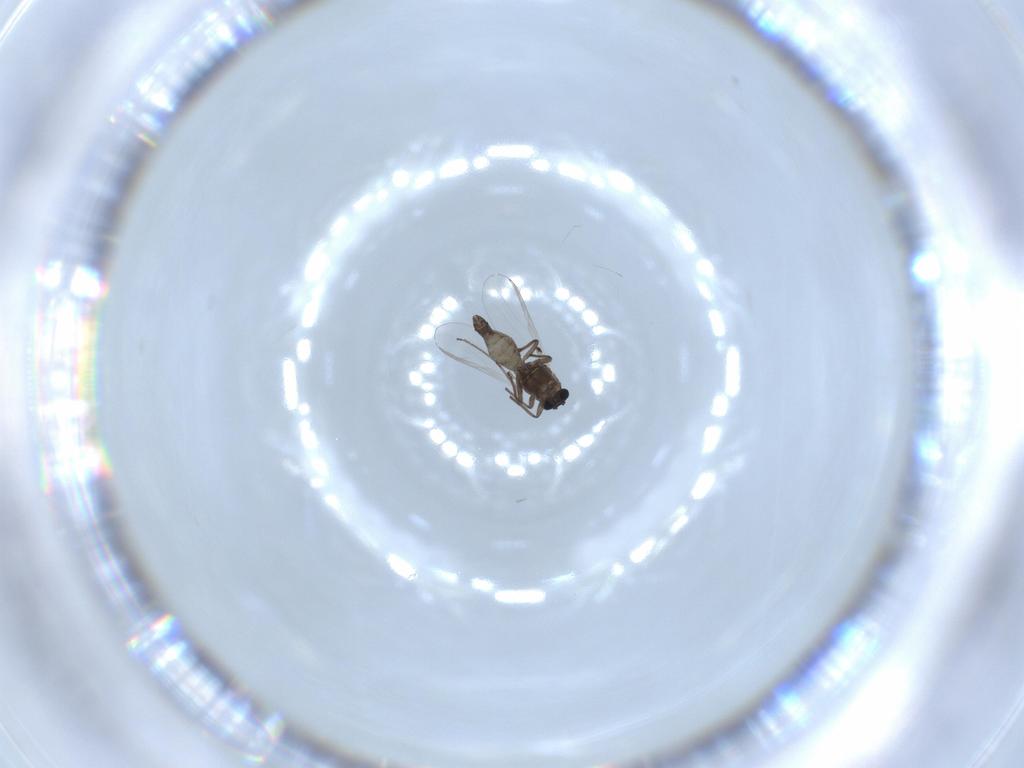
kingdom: Animalia
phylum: Arthropoda
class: Insecta
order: Diptera
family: Chironomidae
